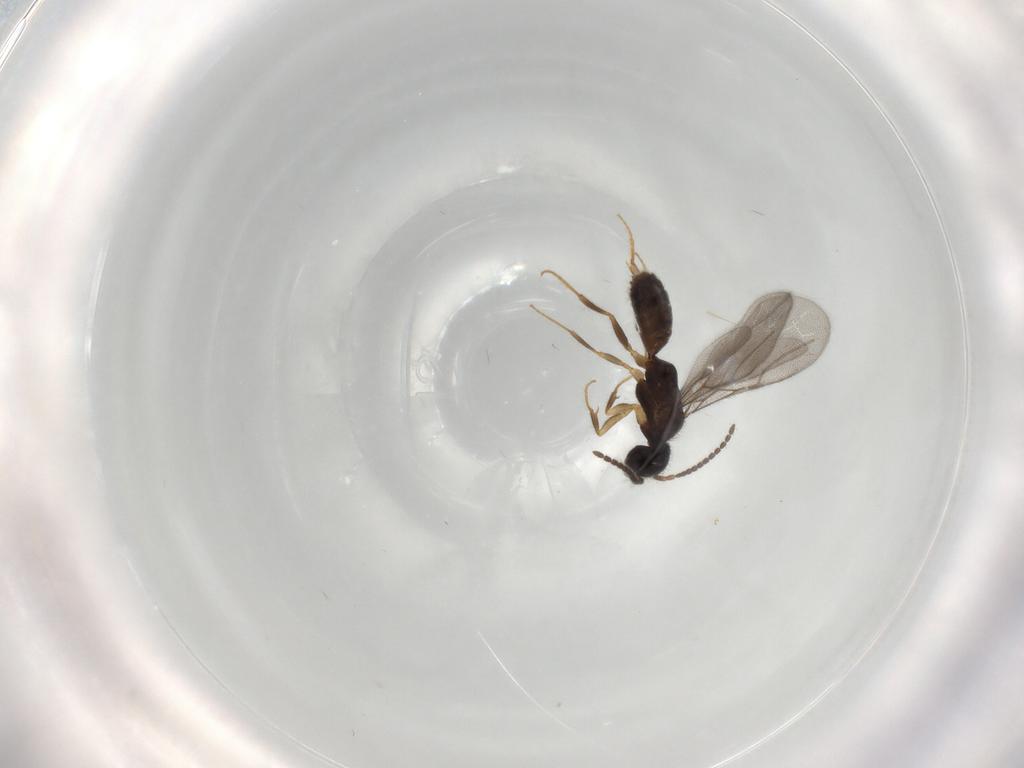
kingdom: Animalia
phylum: Arthropoda
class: Insecta
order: Hymenoptera
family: Bethylidae
